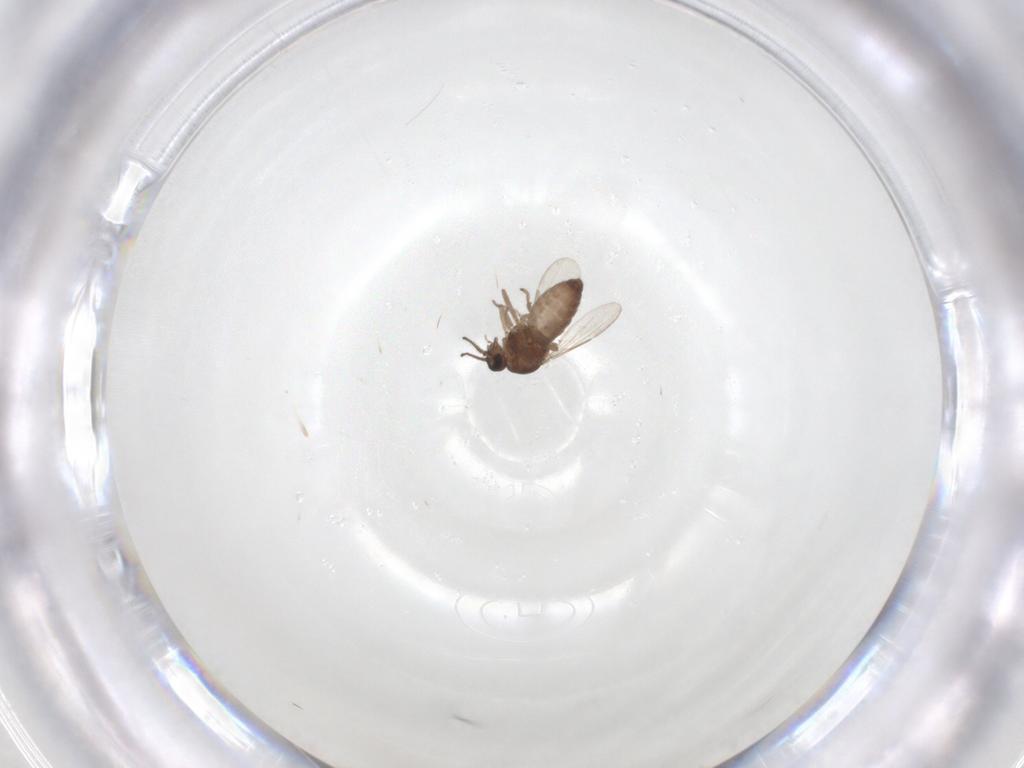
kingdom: Animalia
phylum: Arthropoda
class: Insecta
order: Diptera
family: Ceratopogonidae
